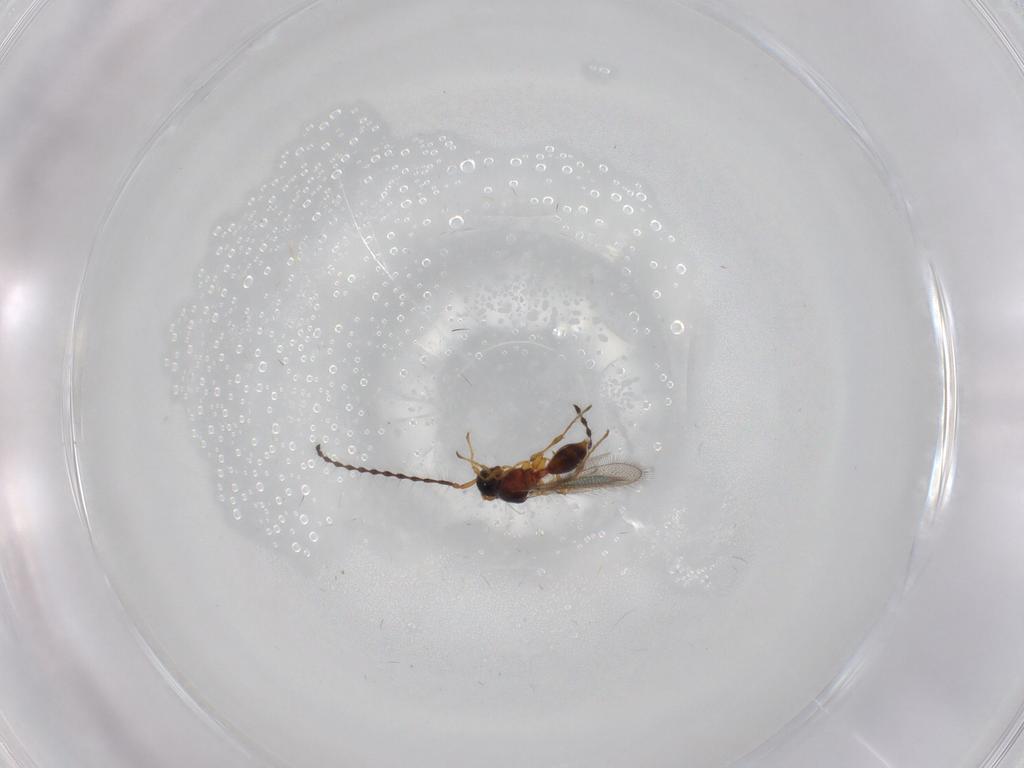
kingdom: Animalia
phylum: Arthropoda
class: Insecta
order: Hymenoptera
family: Diapriidae
